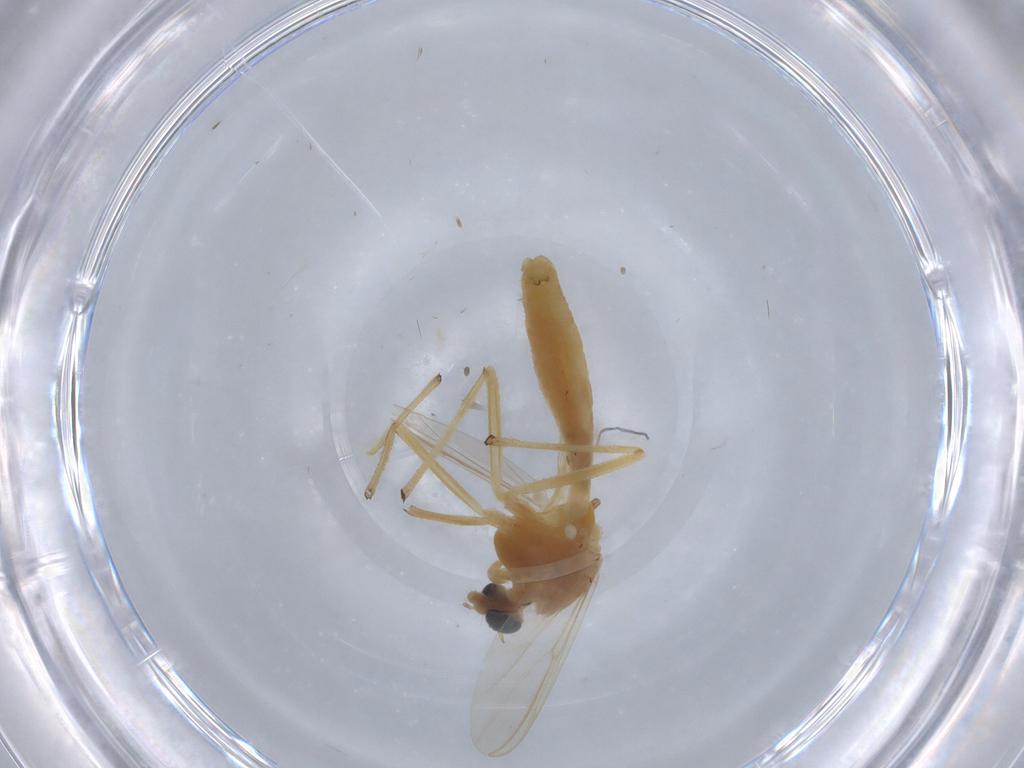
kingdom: Animalia
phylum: Arthropoda
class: Insecta
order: Diptera
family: Chironomidae
